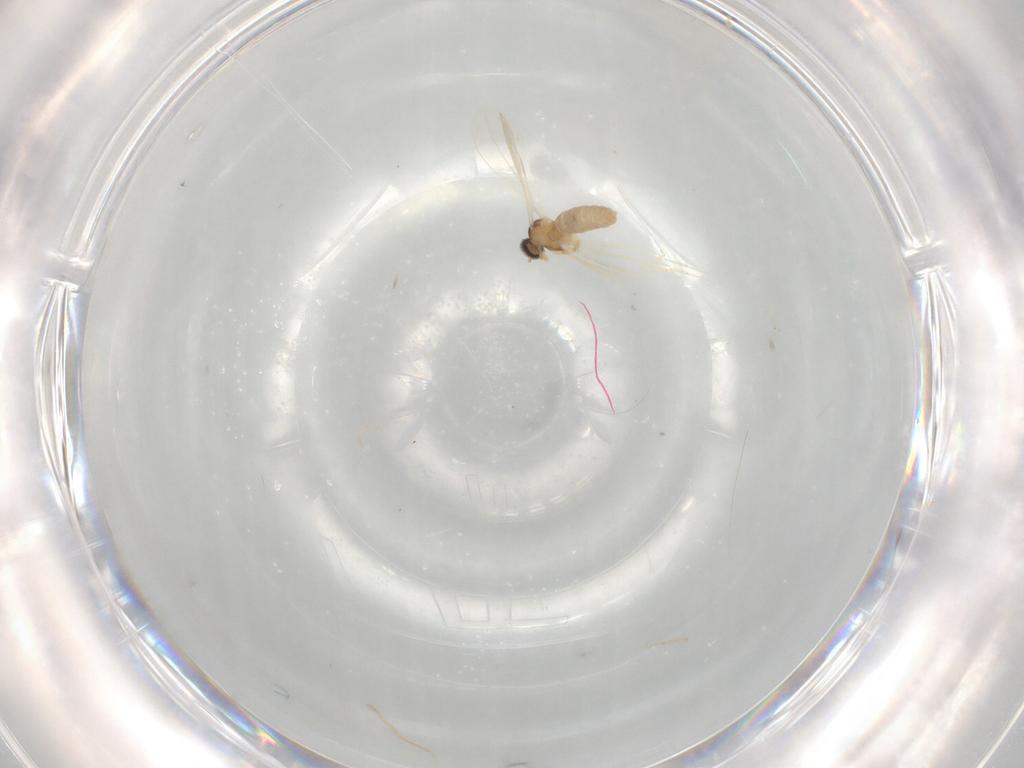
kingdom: Animalia
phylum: Arthropoda
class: Insecta
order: Diptera
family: Cecidomyiidae
